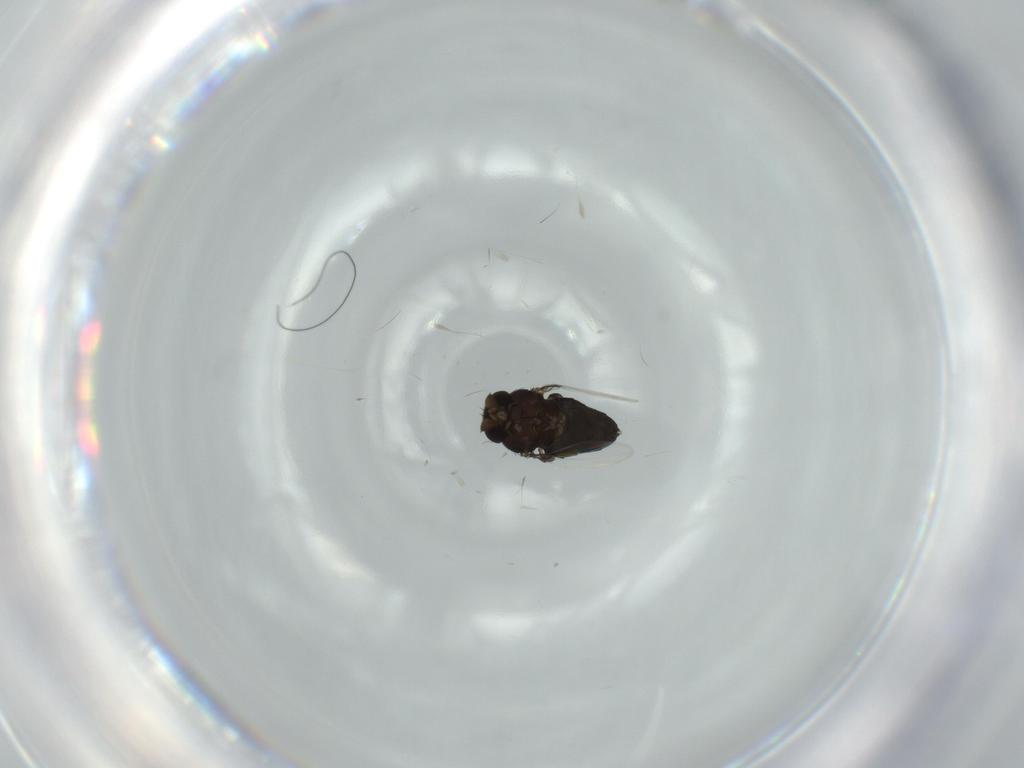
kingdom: Animalia
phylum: Arthropoda
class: Insecta
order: Diptera
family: Phoridae
